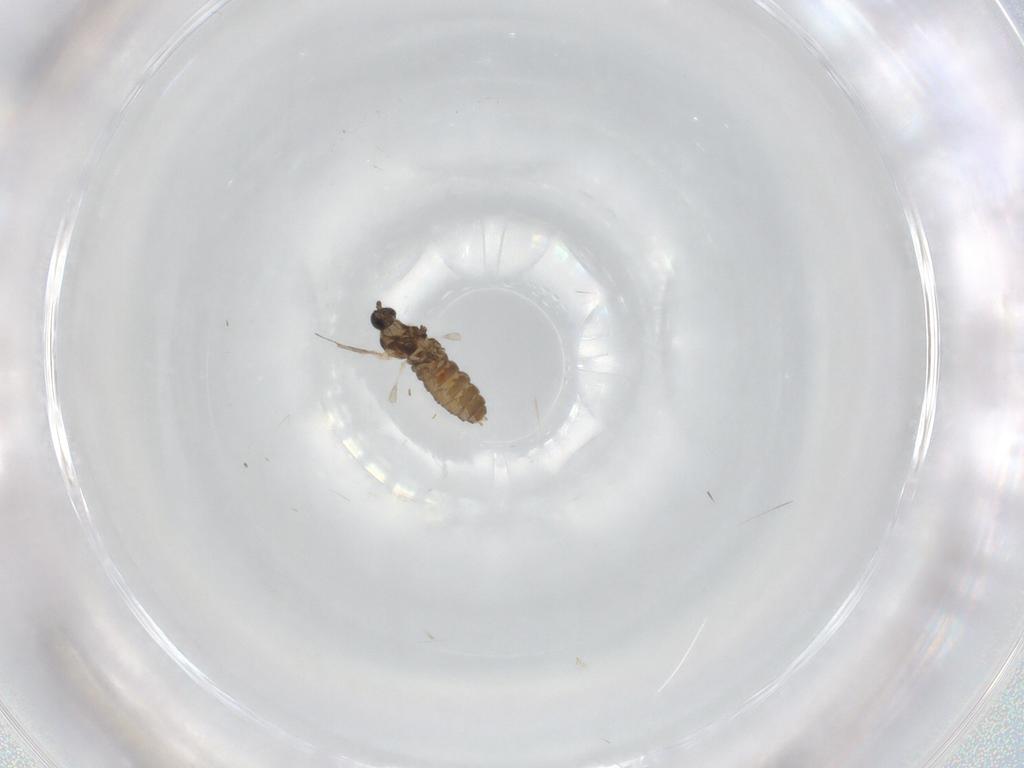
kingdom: Animalia
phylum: Arthropoda
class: Insecta
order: Diptera
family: Cecidomyiidae
